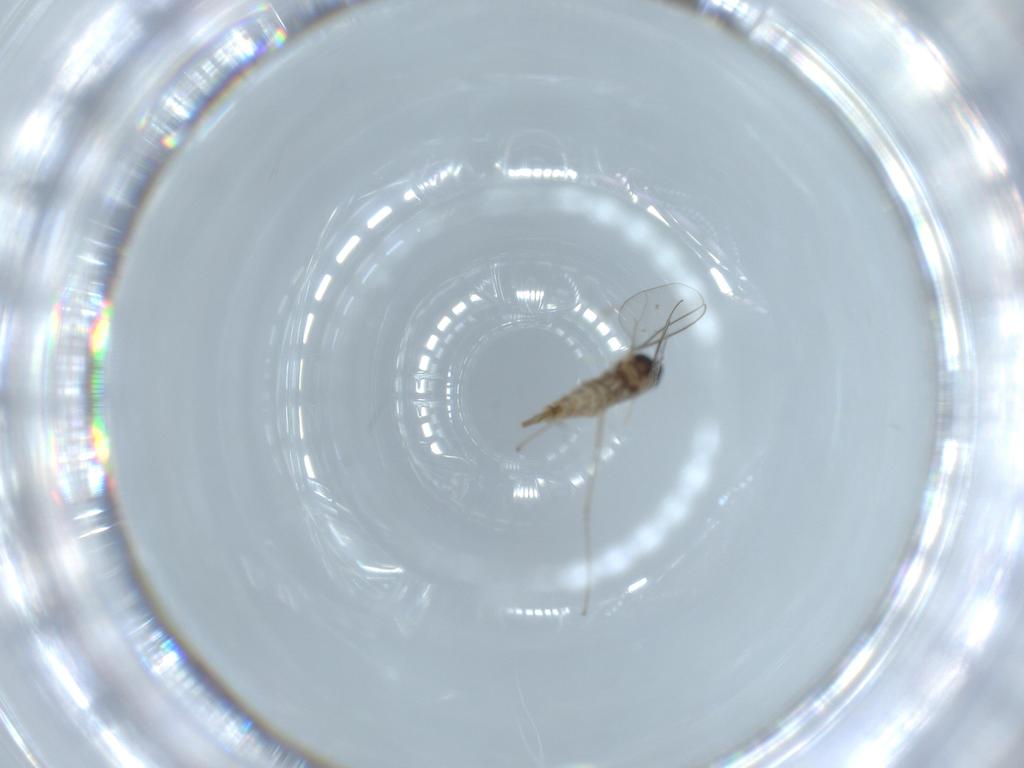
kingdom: Animalia
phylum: Arthropoda
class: Insecta
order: Diptera
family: Cecidomyiidae
